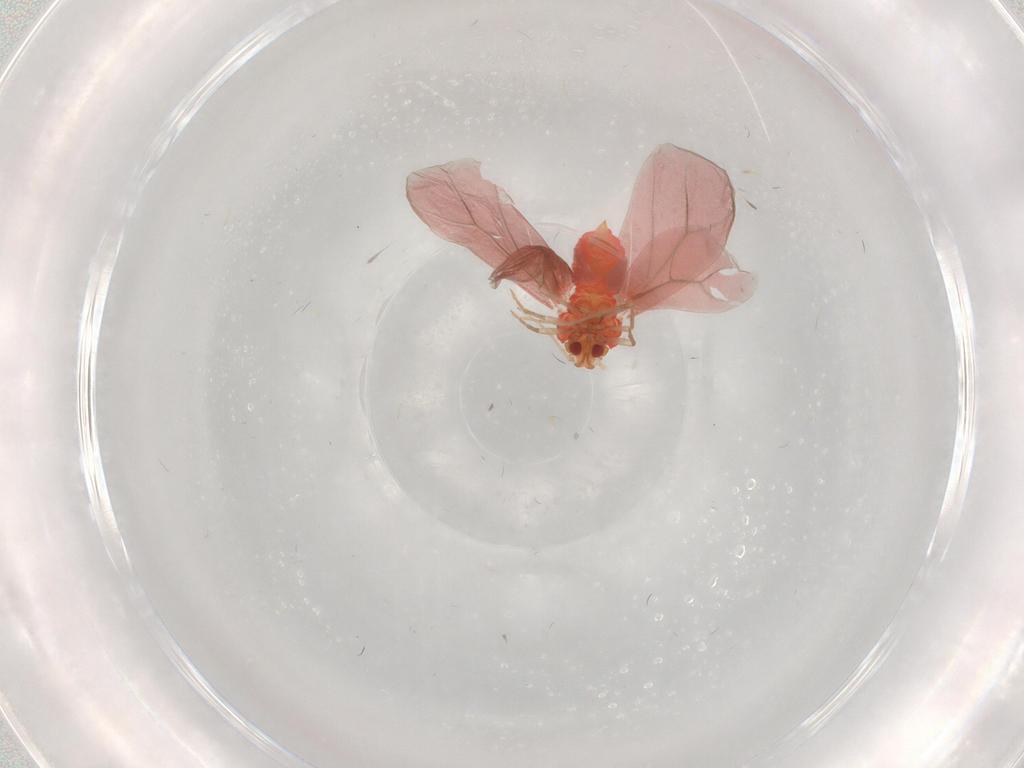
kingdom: Animalia
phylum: Arthropoda
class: Insecta
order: Hemiptera
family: Aleyrodidae
